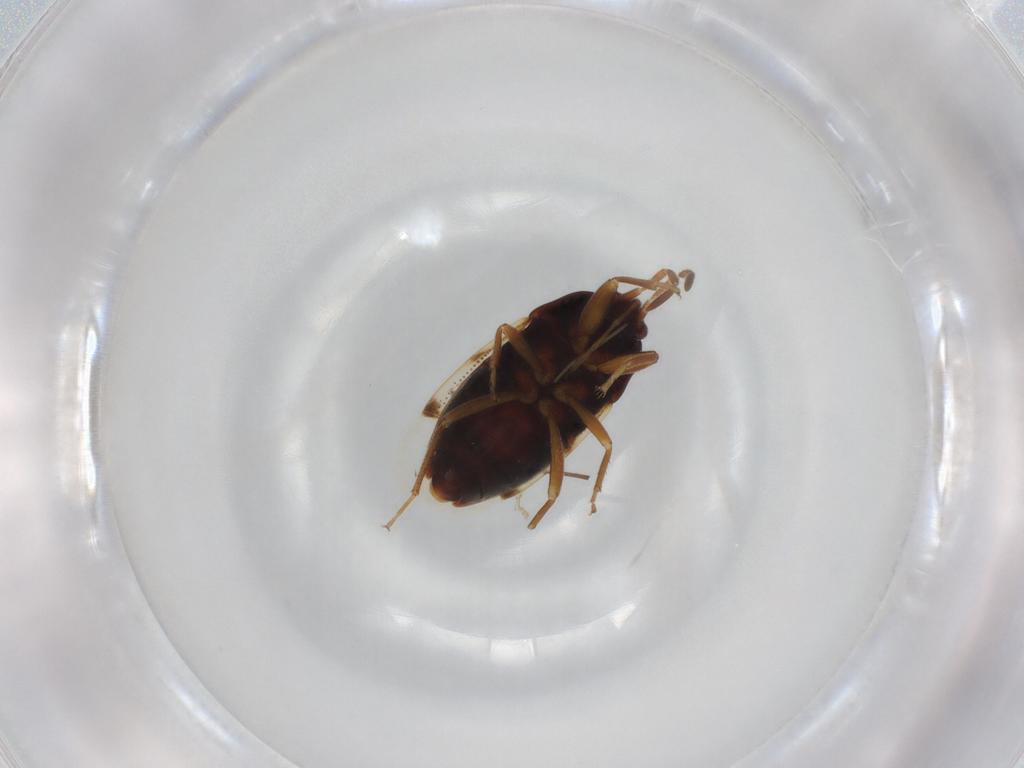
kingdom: Animalia
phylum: Arthropoda
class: Insecta
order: Hemiptera
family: Rhyparochromidae
